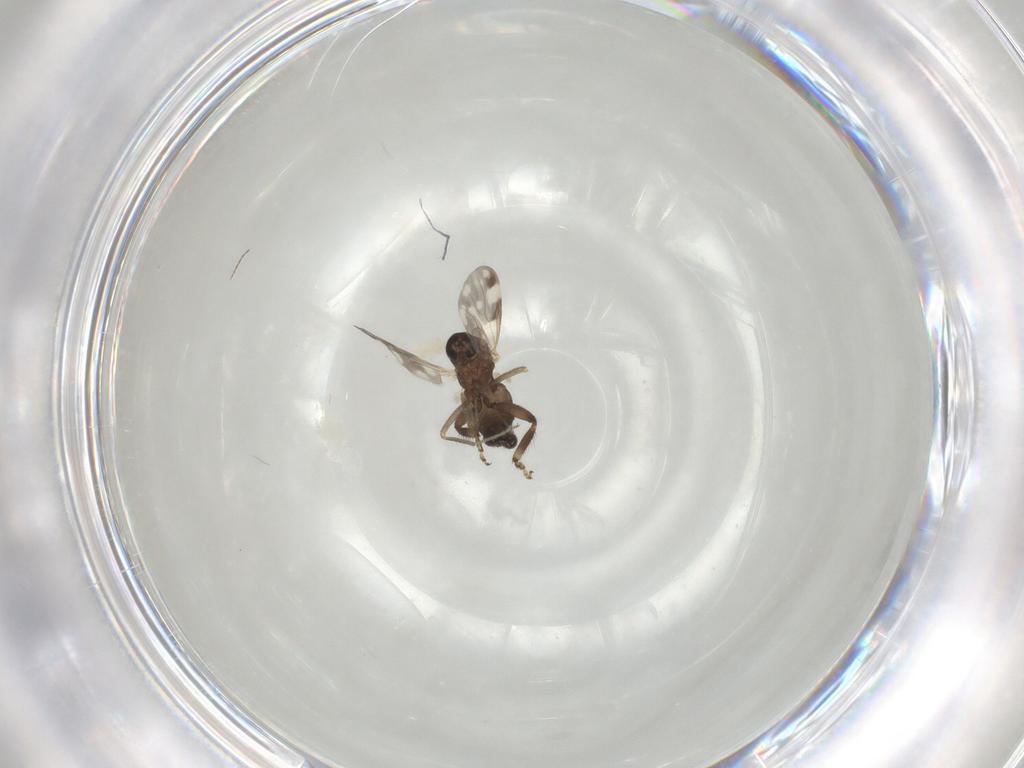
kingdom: Animalia
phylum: Arthropoda
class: Insecta
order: Diptera
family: Ceratopogonidae
